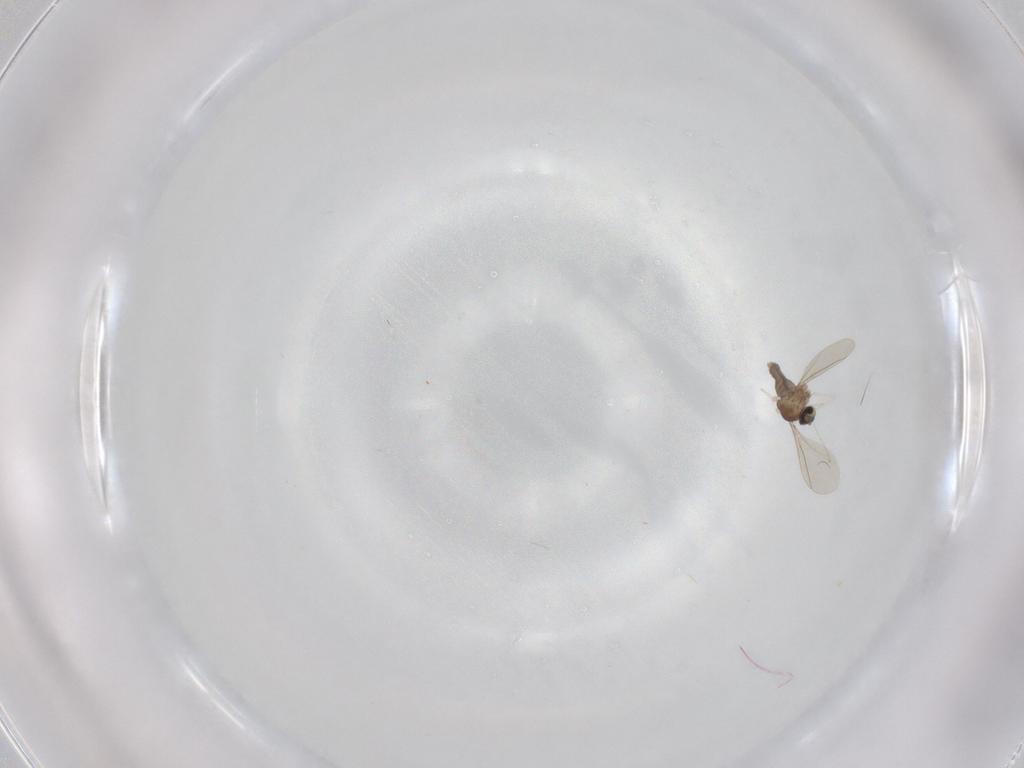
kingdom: Animalia
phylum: Arthropoda
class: Insecta
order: Diptera
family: Cecidomyiidae
